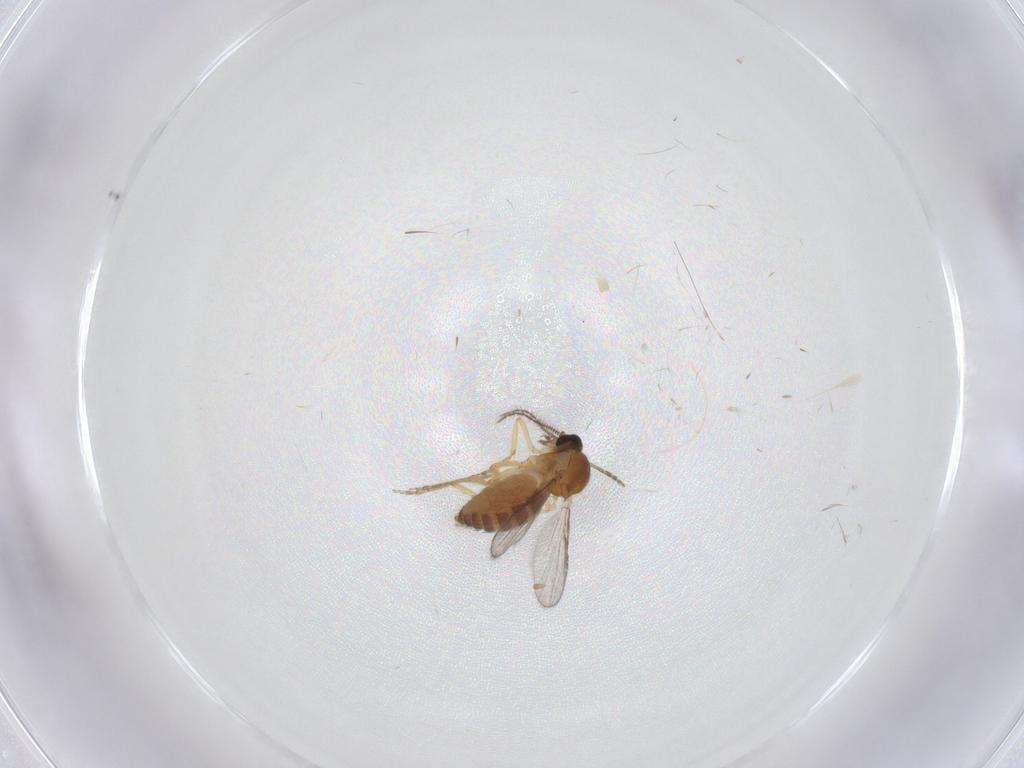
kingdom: Animalia
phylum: Arthropoda
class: Insecta
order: Diptera
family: Ceratopogonidae
